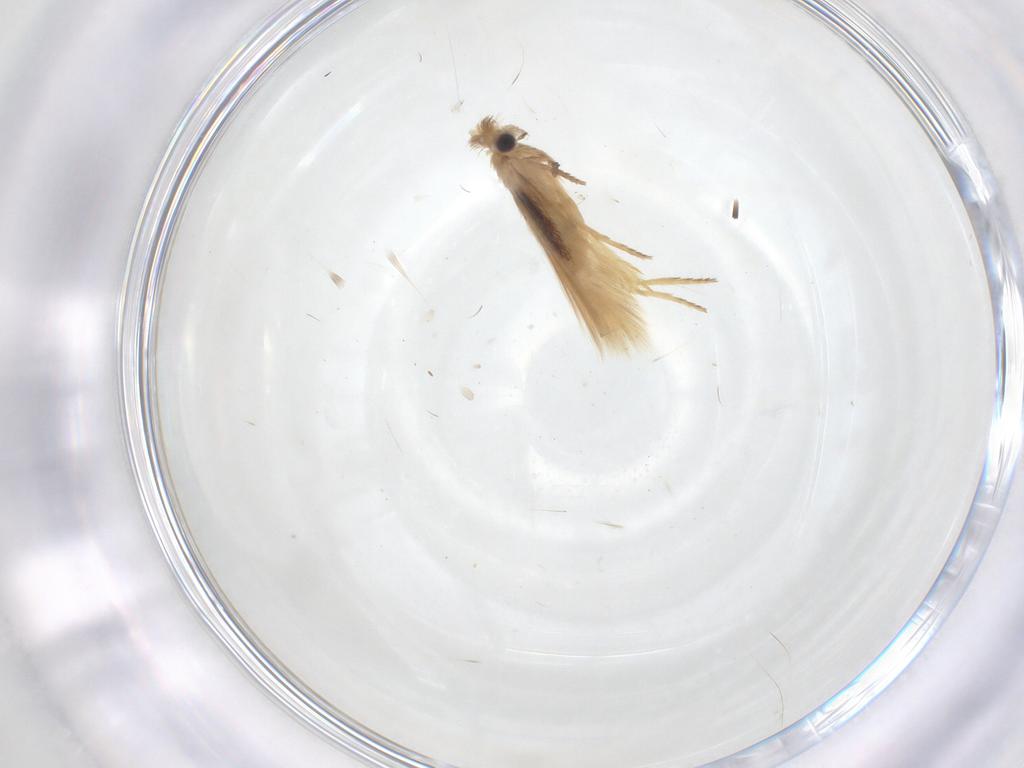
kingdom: Animalia
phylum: Arthropoda
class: Insecta
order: Lepidoptera
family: Nepticulidae
